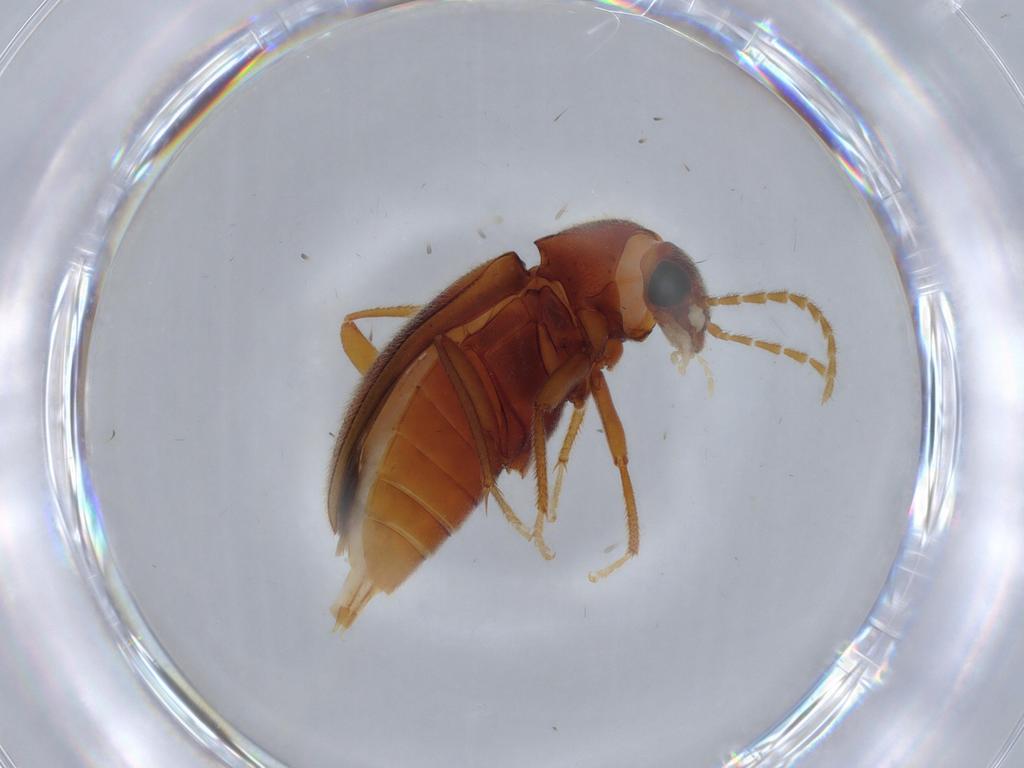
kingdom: Animalia
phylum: Arthropoda
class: Insecta
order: Coleoptera
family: Ptilodactylidae
